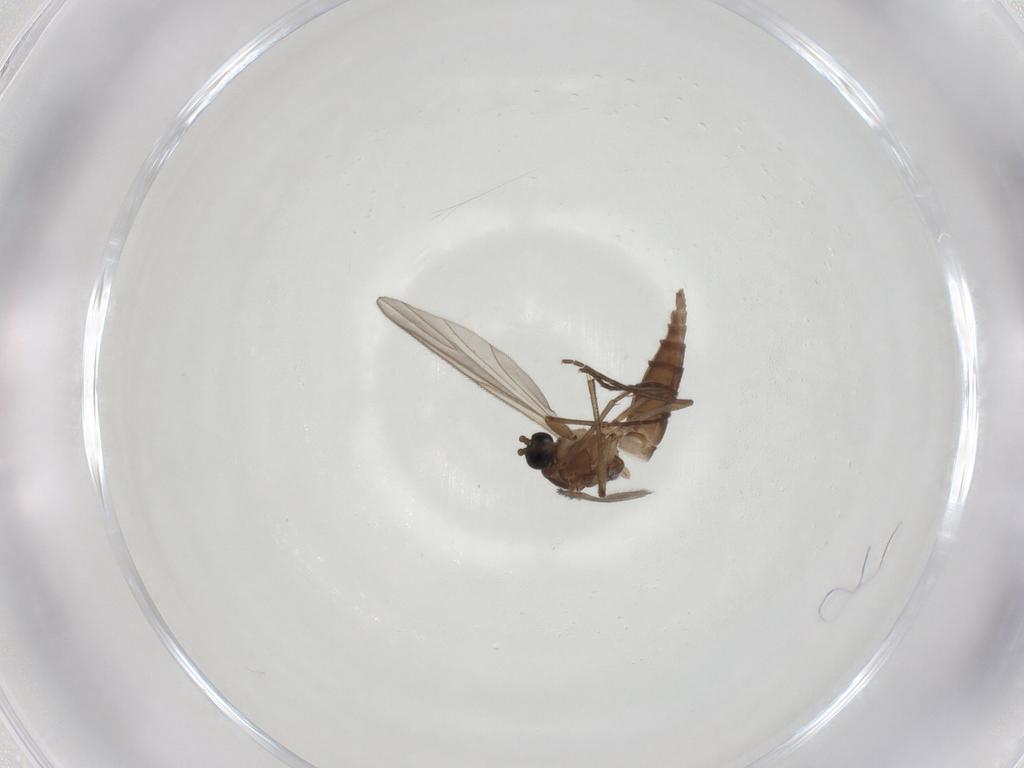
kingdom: Animalia
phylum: Arthropoda
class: Insecta
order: Diptera
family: Sciaridae
